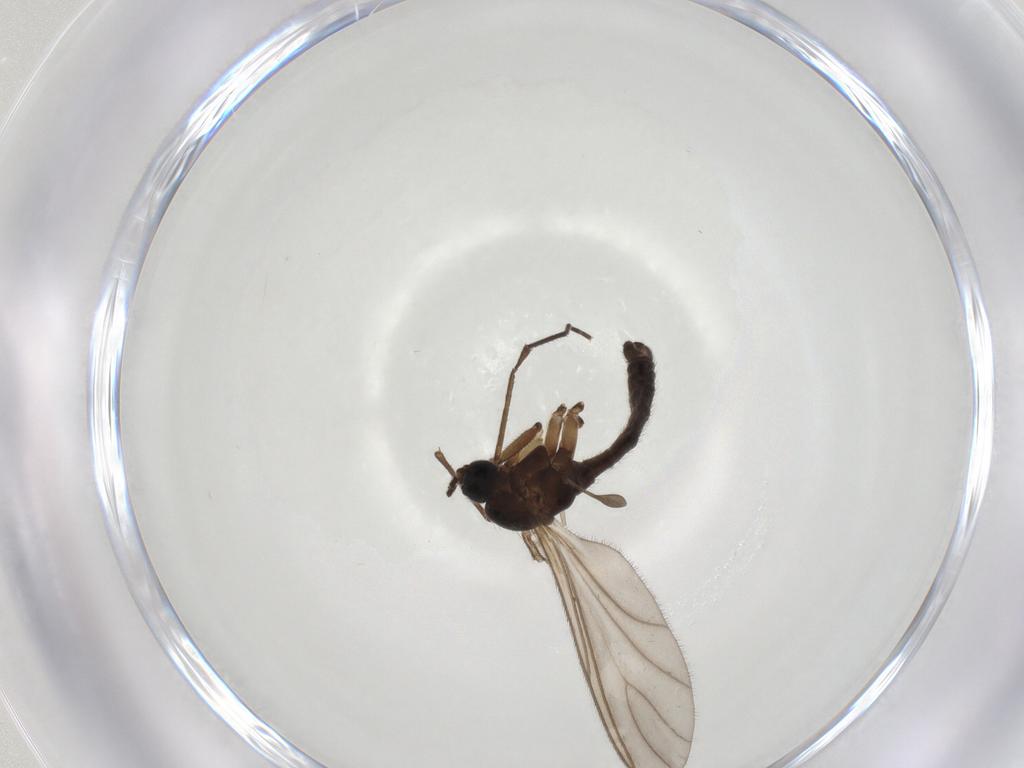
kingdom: Animalia
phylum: Arthropoda
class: Insecta
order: Diptera
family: Sciaridae
